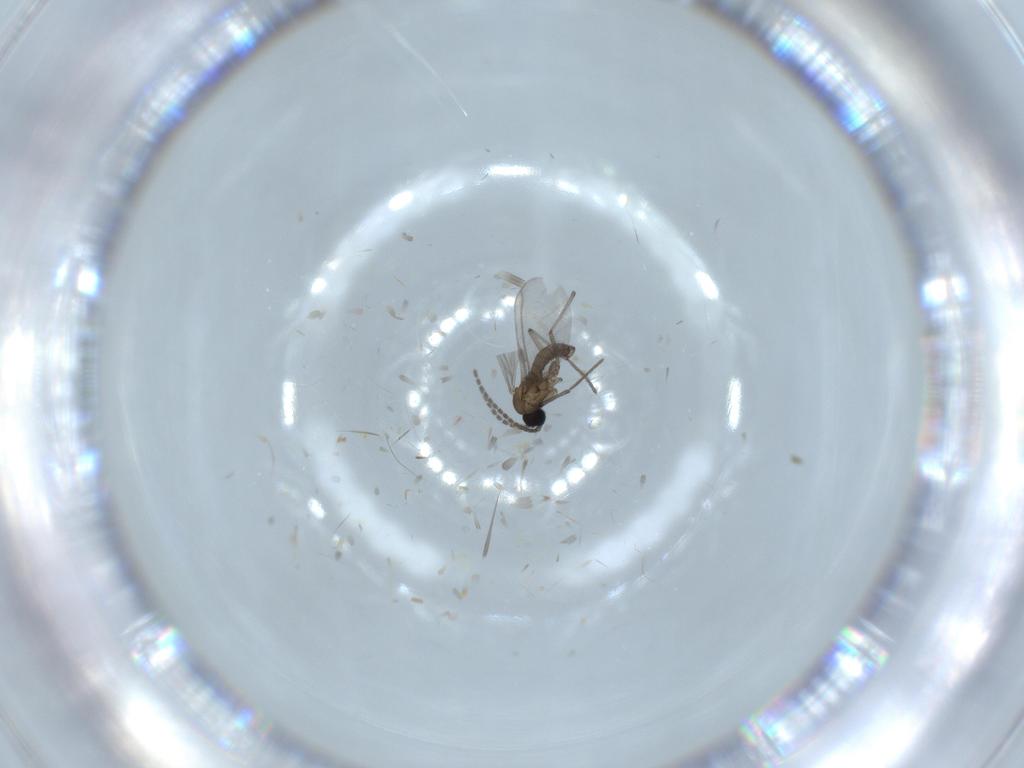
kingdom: Animalia
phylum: Arthropoda
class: Insecta
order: Diptera
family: Sciaridae
